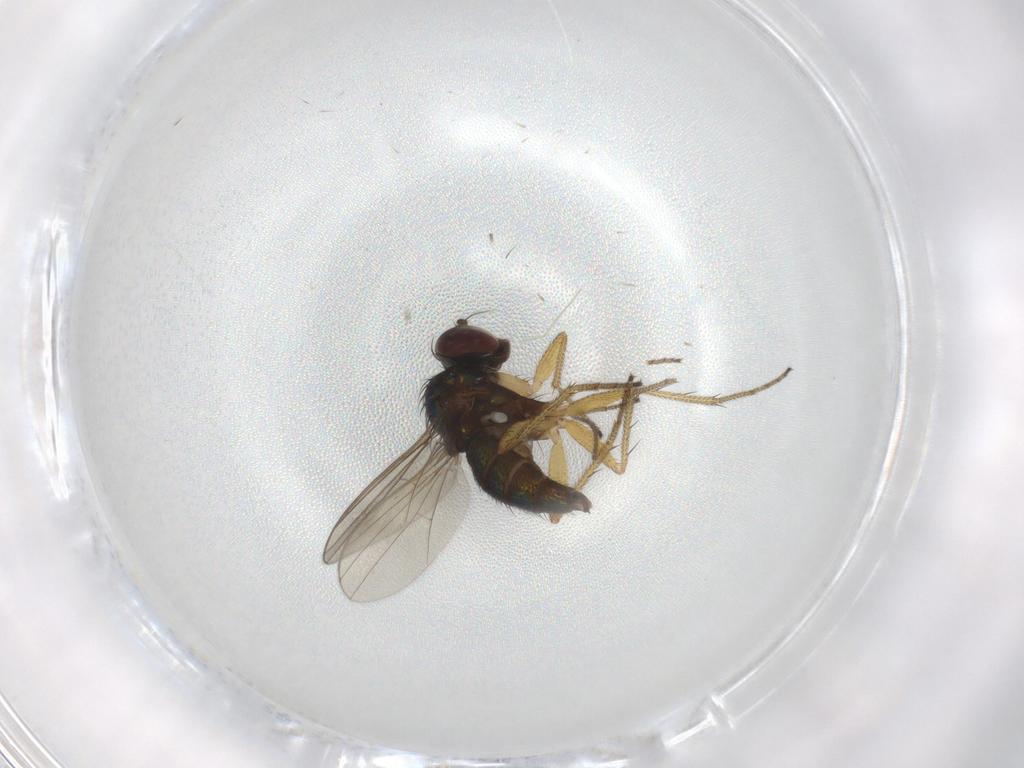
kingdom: Animalia
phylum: Arthropoda
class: Insecta
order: Diptera
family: Sciaridae
